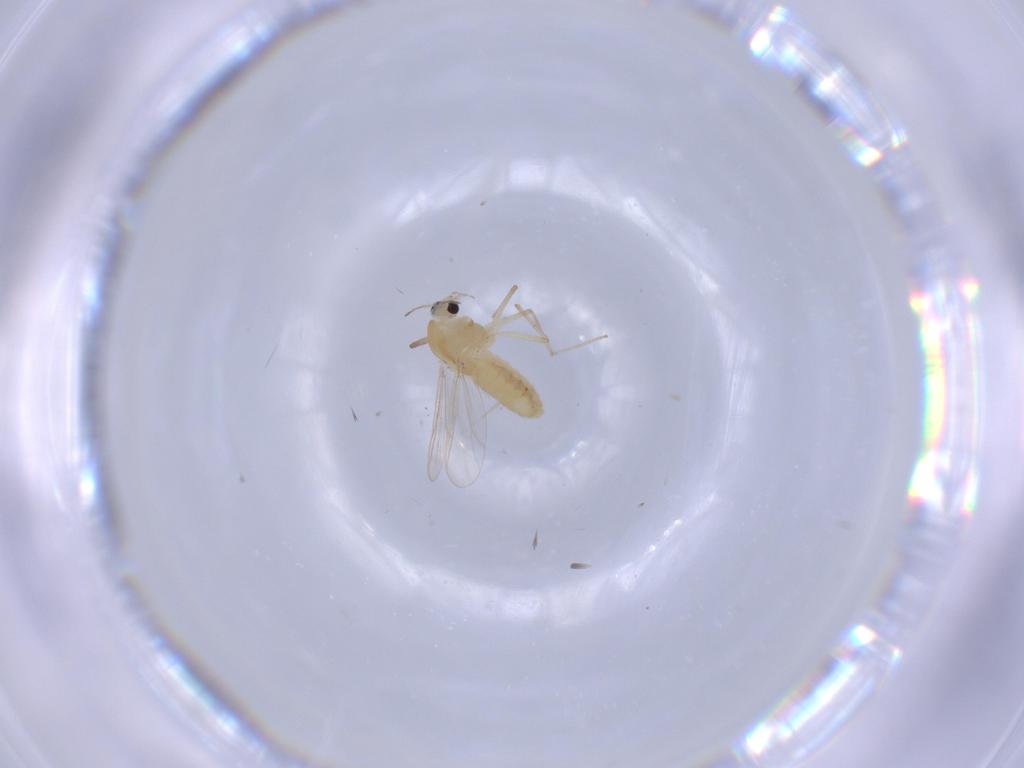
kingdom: Animalia
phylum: Arthropoda
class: Insecta
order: Diptera
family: Chironomidae
